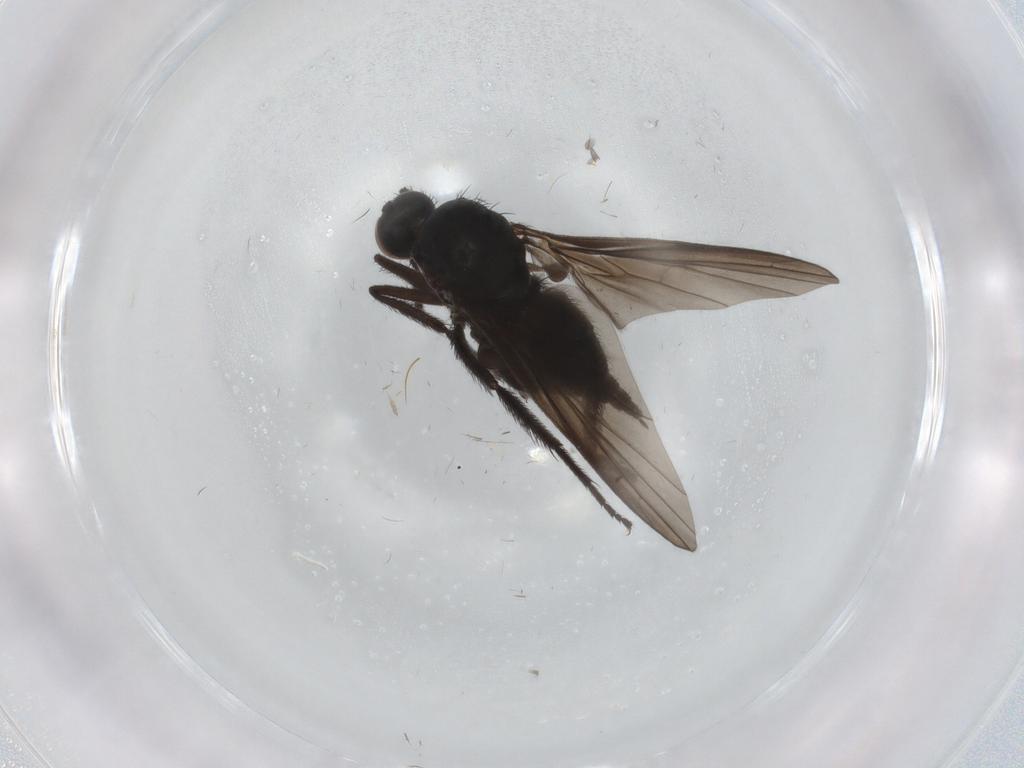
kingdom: Animalia
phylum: Arthropoda
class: Insecta
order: Diptera
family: Empididae
